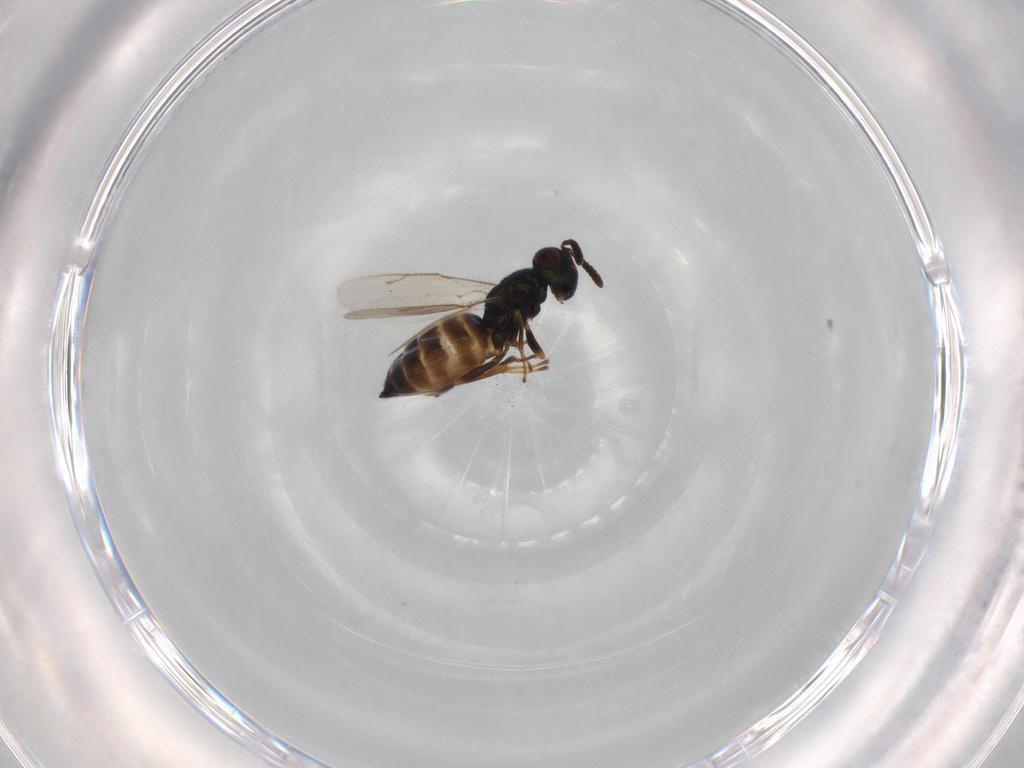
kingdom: Animalia
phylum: Arthropoda
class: Insecta
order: Hymenoptera
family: Pteromalidae
